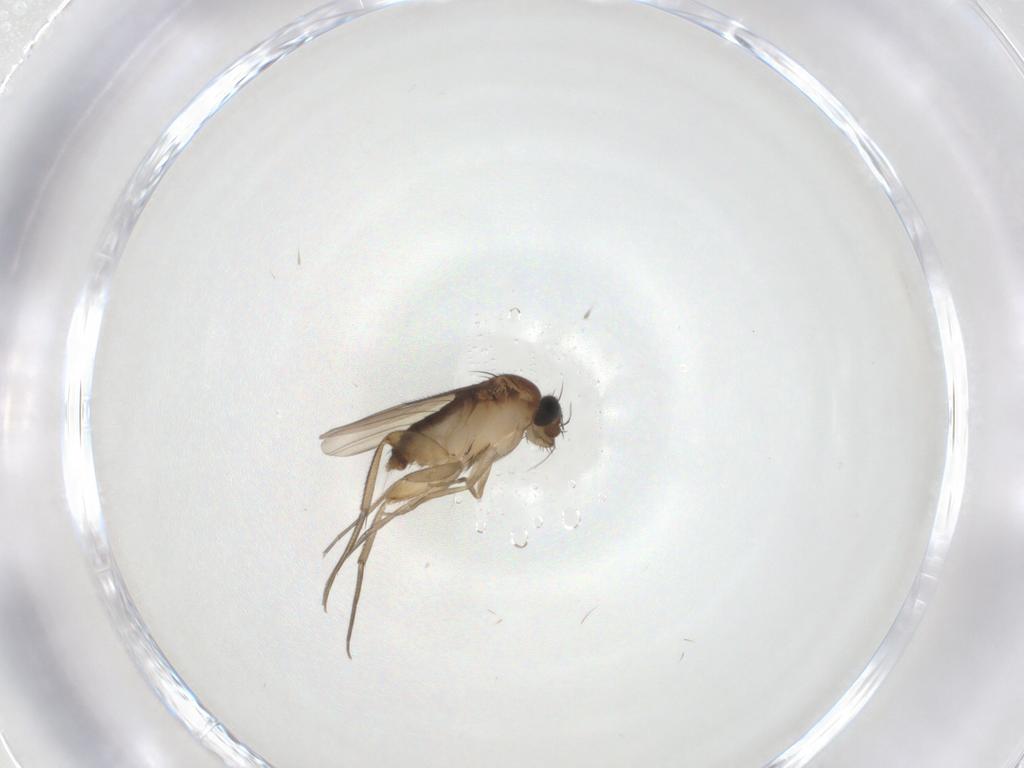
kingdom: Animalia
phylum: Arthropoda
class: Insecta
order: Diptera
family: Phoridae
